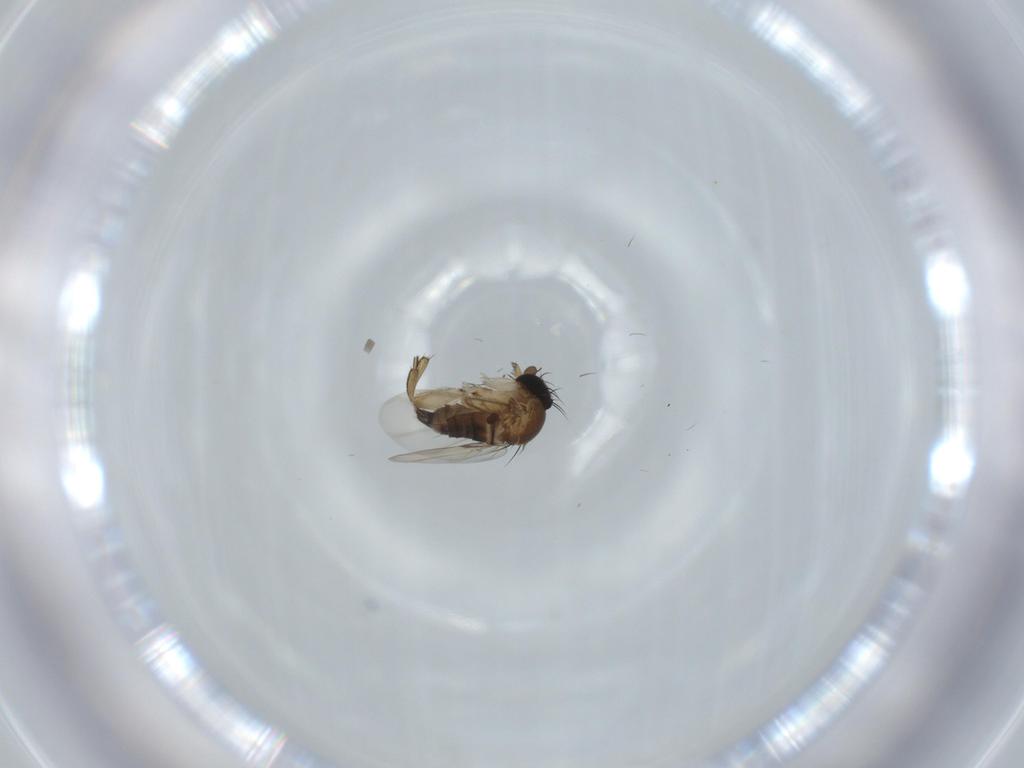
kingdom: Animalia
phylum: Arthropoda
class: Insecta
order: Diptera
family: Phoridae
